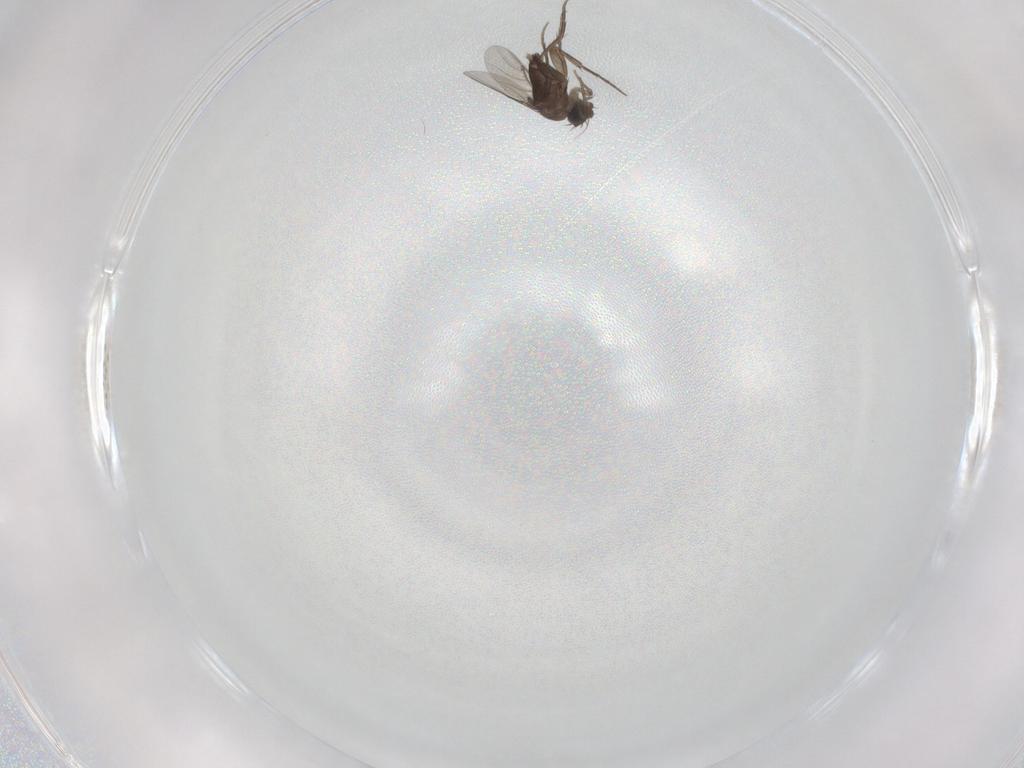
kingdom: Animalia
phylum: Arthropoda
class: Insecta
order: Diptera
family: Phoridae
